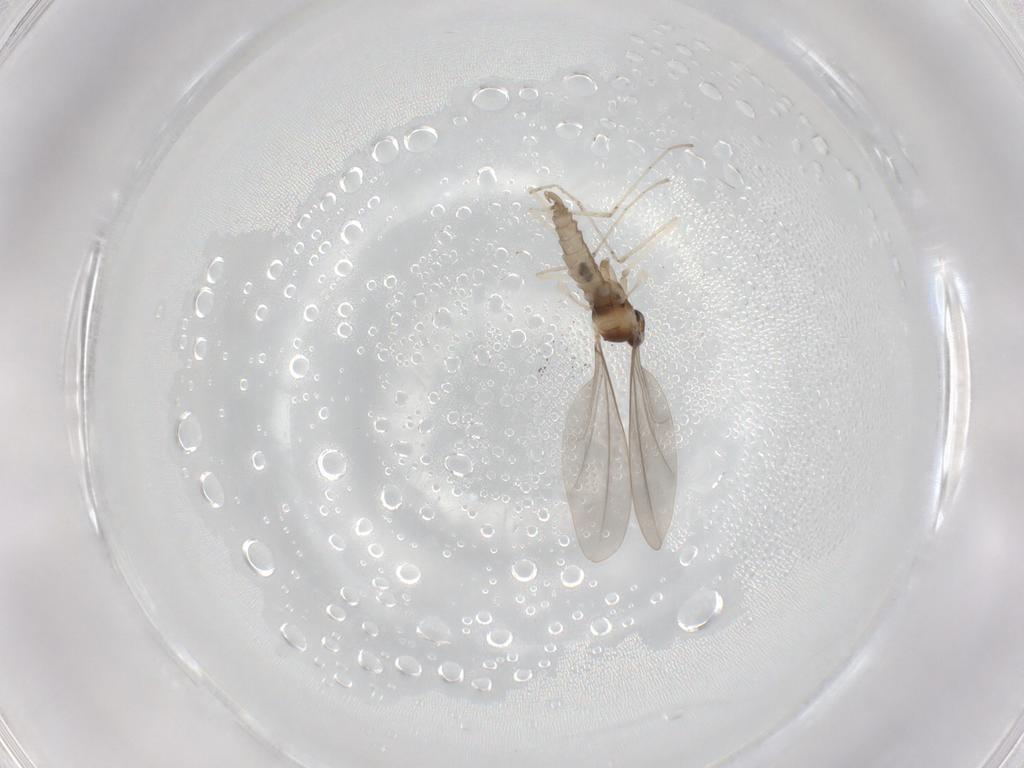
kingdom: Animalia
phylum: Arthropoda
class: Insecta
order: Diptera
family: Cecidomyiidae
